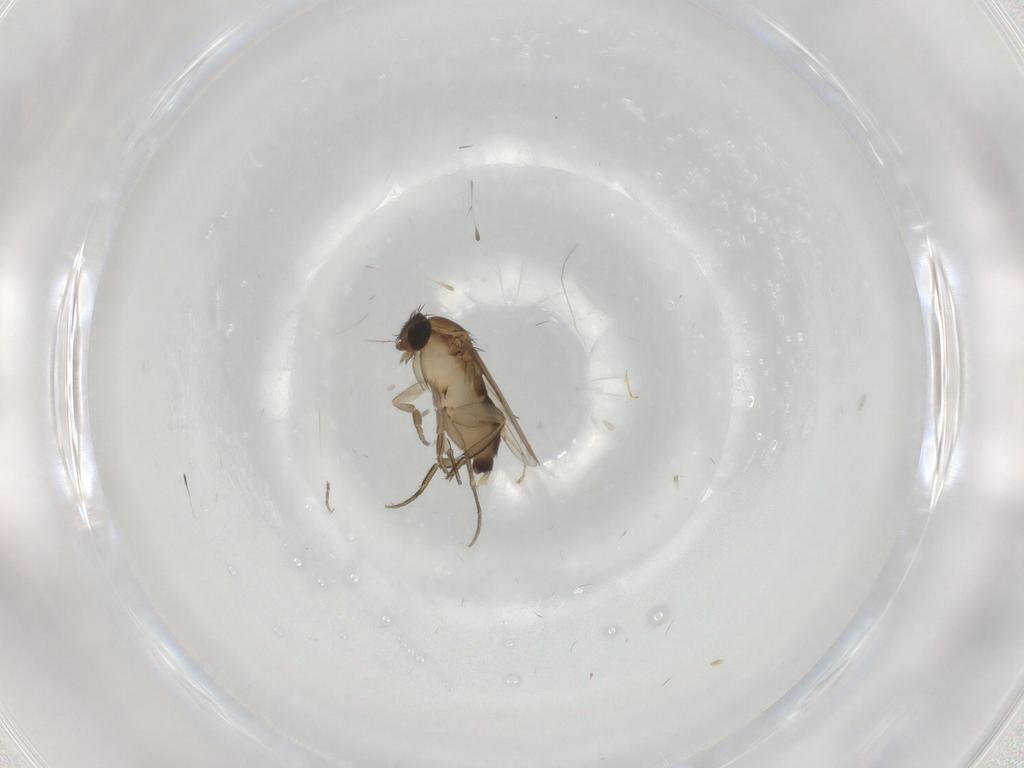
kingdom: Animalia
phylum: Arthropoda
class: Insecta
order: Diptera
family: Phoridae
